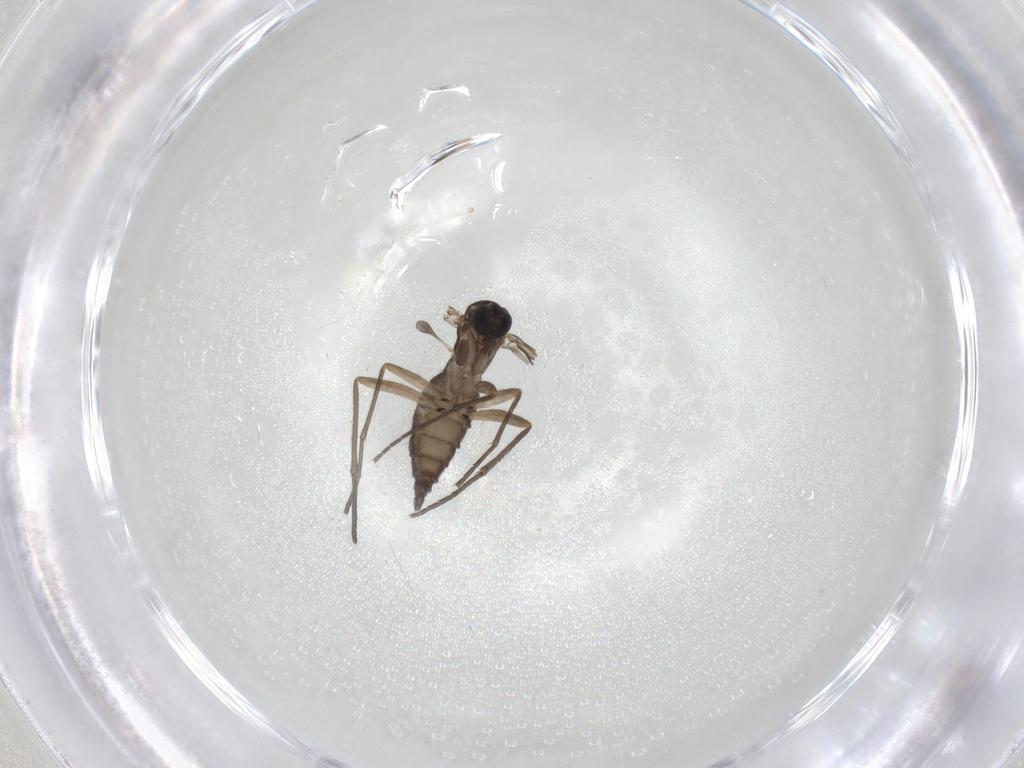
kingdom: Animalia
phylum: Arthropoda
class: Insecta
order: Diptera
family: Sciaridae
